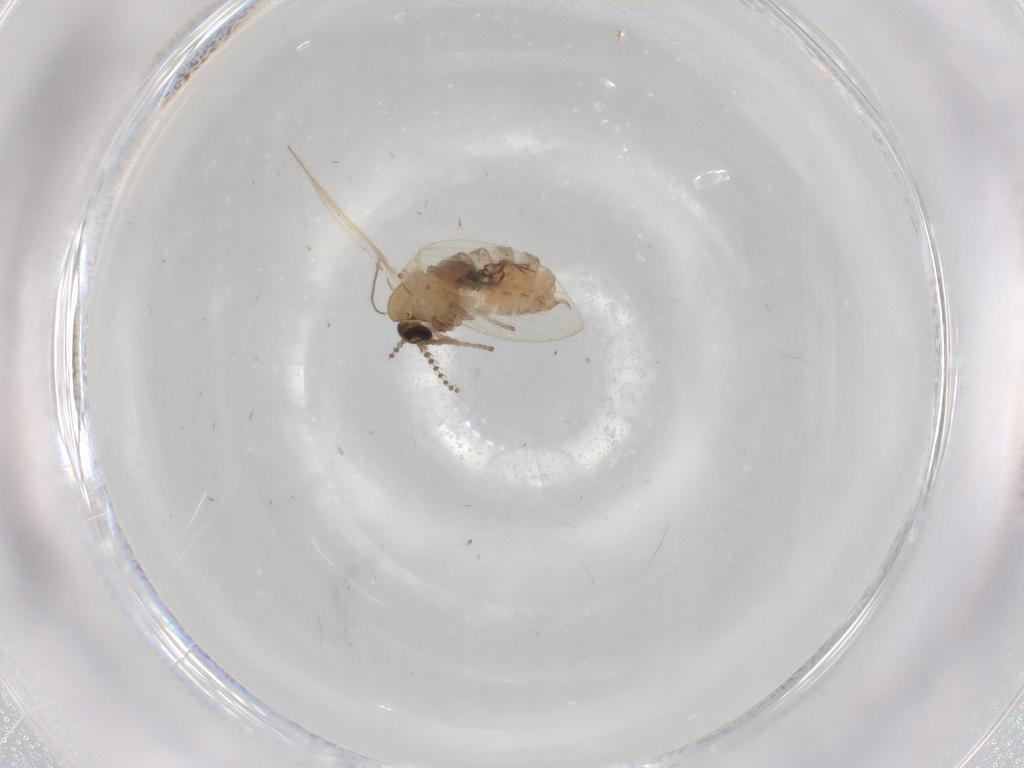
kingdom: Animalia
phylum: Arthropoda
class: Insecta
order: Diptera
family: Psychodidae
